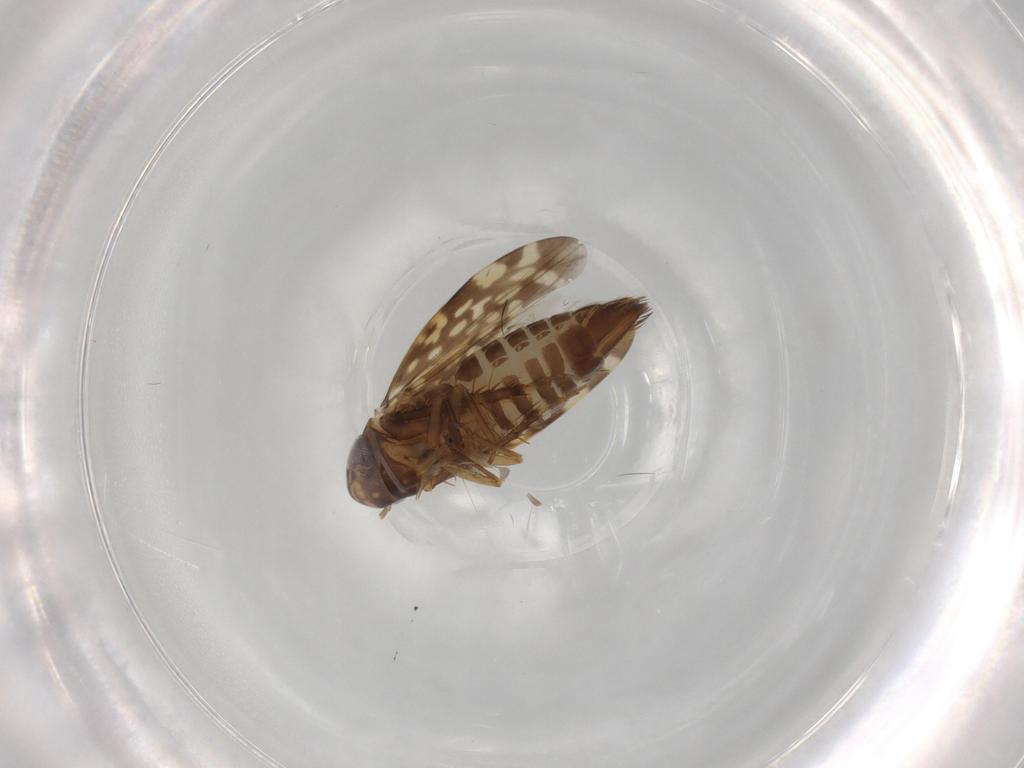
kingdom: Animalia
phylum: Arthropoda
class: Insecta
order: Hemiptera
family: Cicadellidae
